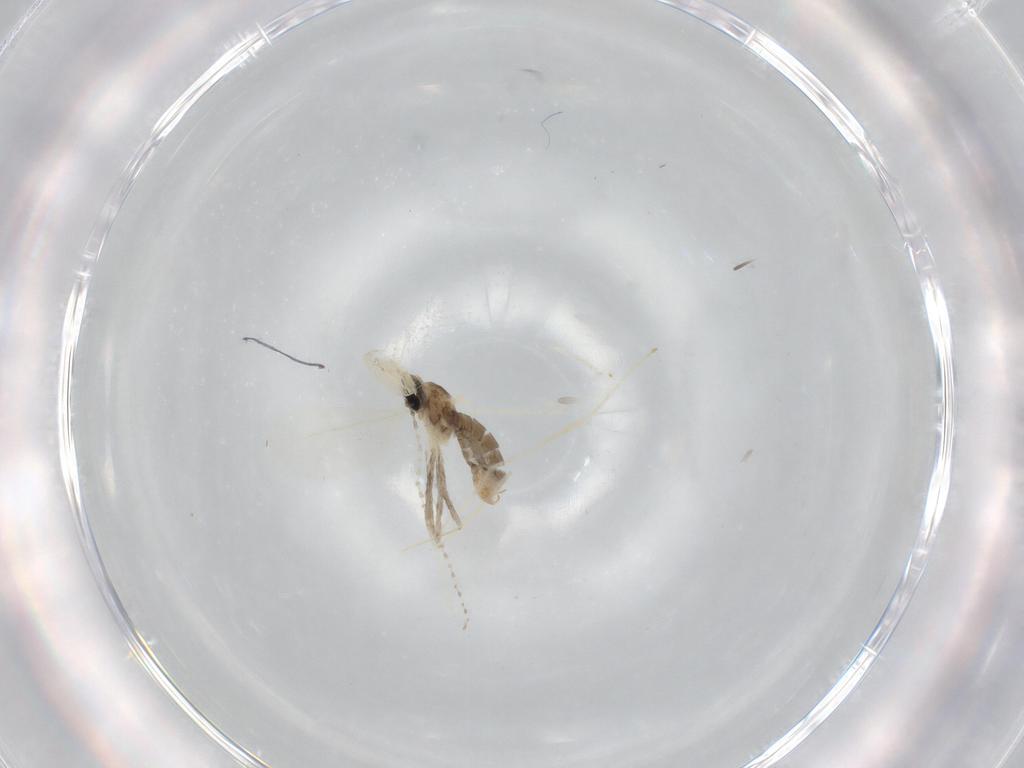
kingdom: Animalia
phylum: Arthropoda
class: Insecta
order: Diptera
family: Cecidomyiidae
